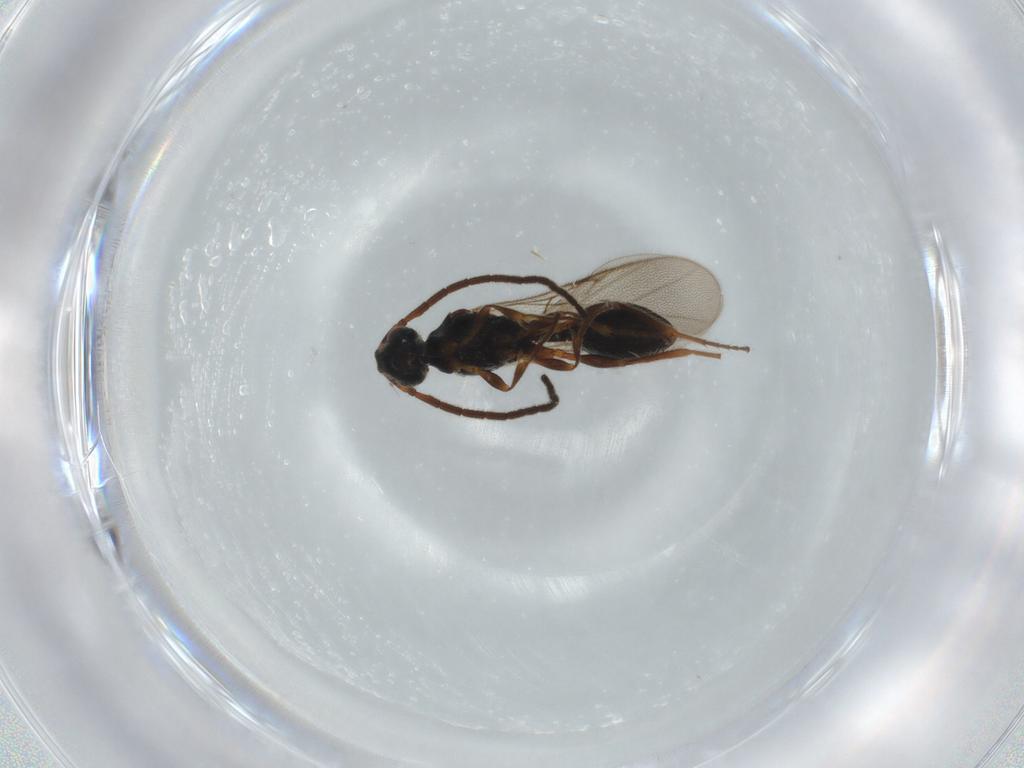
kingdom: Animalia
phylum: Arthropoda
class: Insecta
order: Hymenoptera
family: Diapriidae
